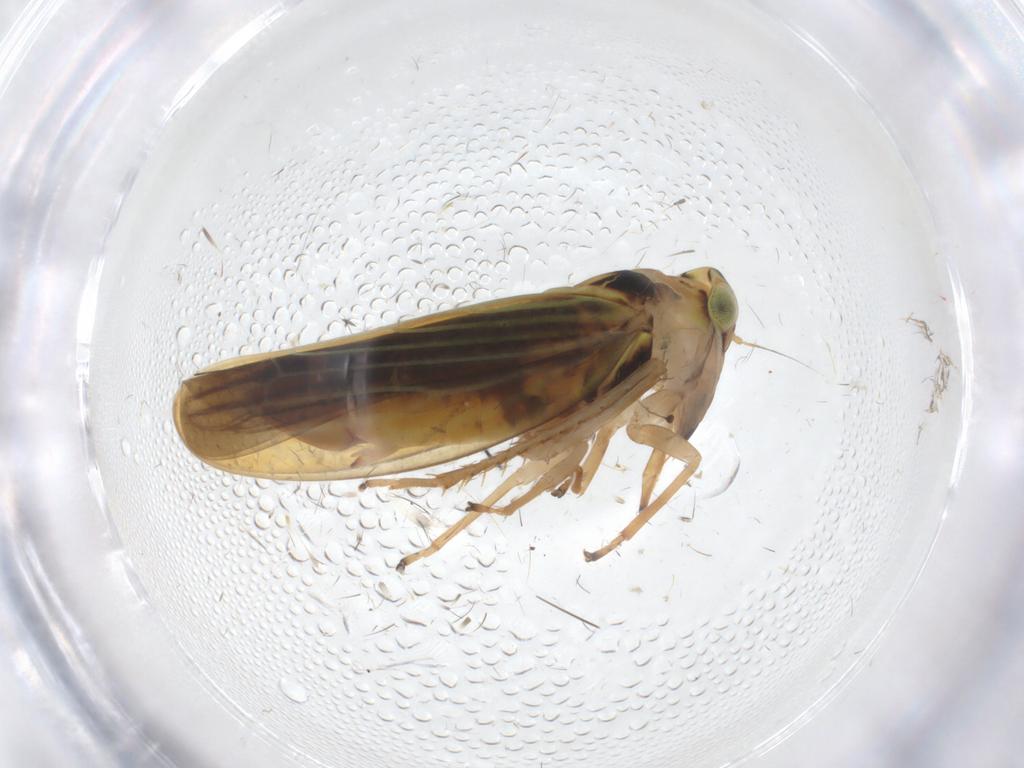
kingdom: Animalia
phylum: Arthropoda
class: Insecta
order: Hemiptera
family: Cicadellidae
